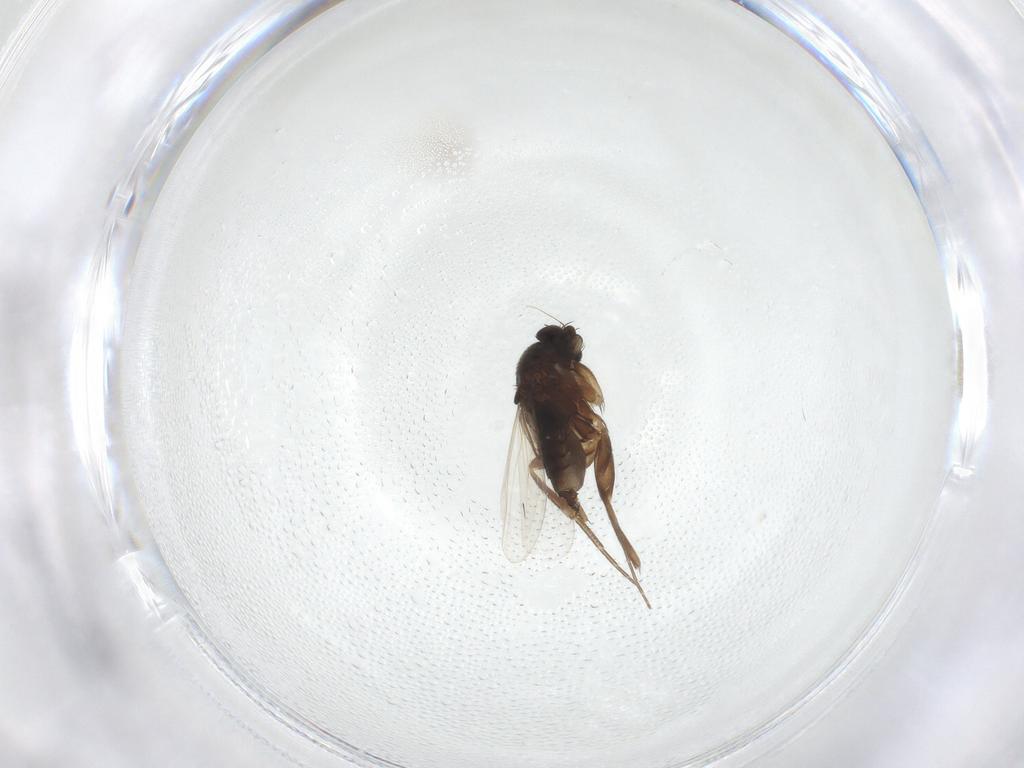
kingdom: Animalia
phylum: Arthropoda
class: Insecta
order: Diptera
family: Phoridae
